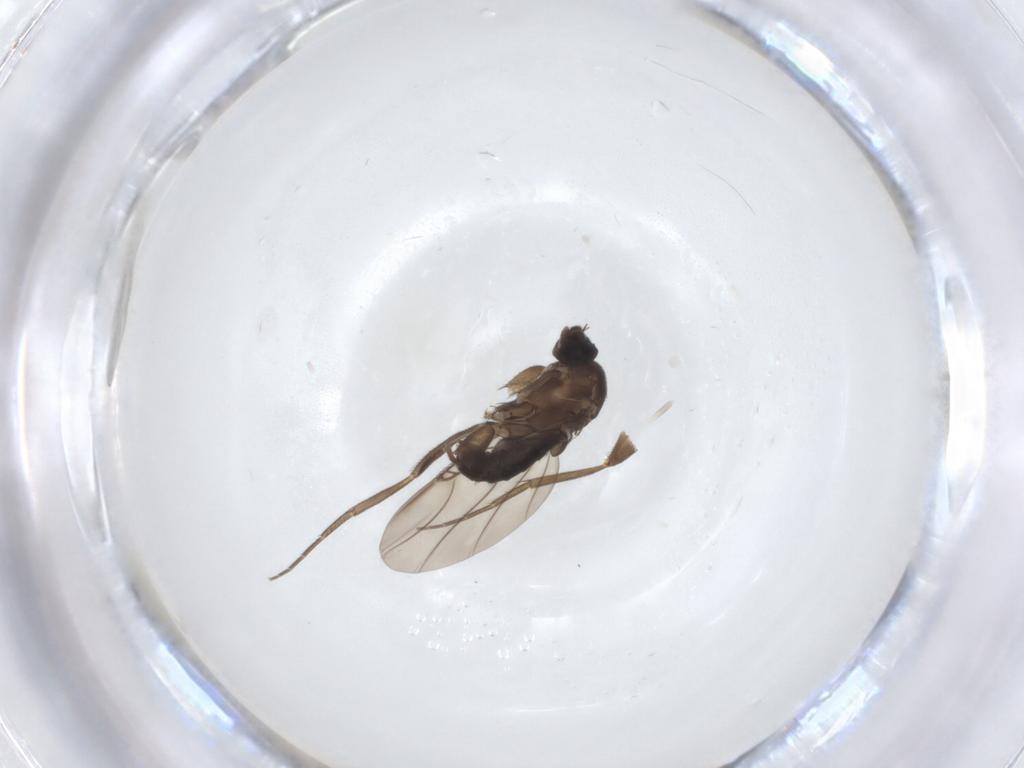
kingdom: Animalia
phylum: Arthropoda
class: Insecta
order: Diptera
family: Phoridae
